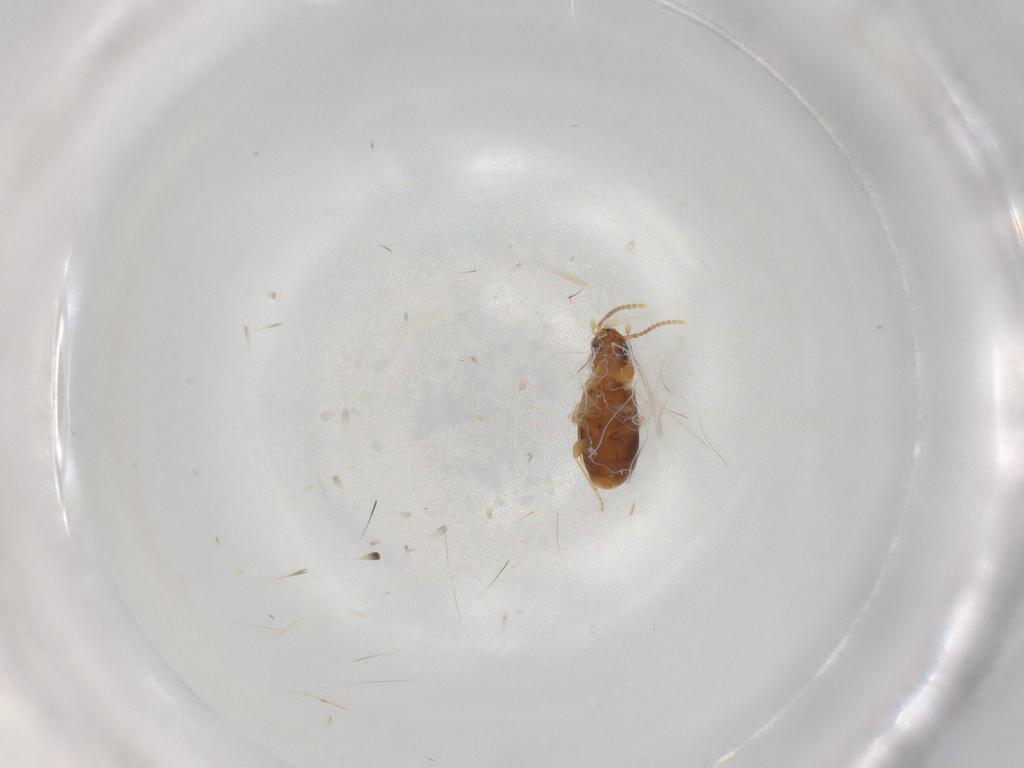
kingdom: Animalia
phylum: Arthropoda
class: Insecta
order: Coleoptera
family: Carabidae
